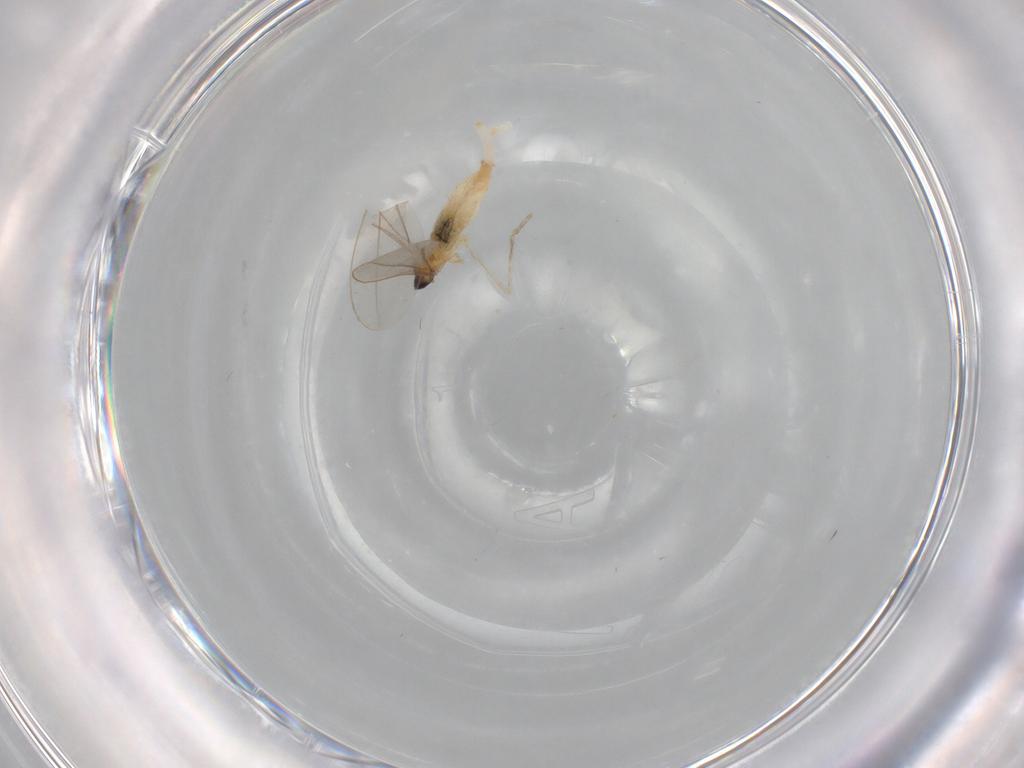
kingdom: Animalia
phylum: Arthropoda
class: Insecta
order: Diptera
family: Cecidomyiidae
